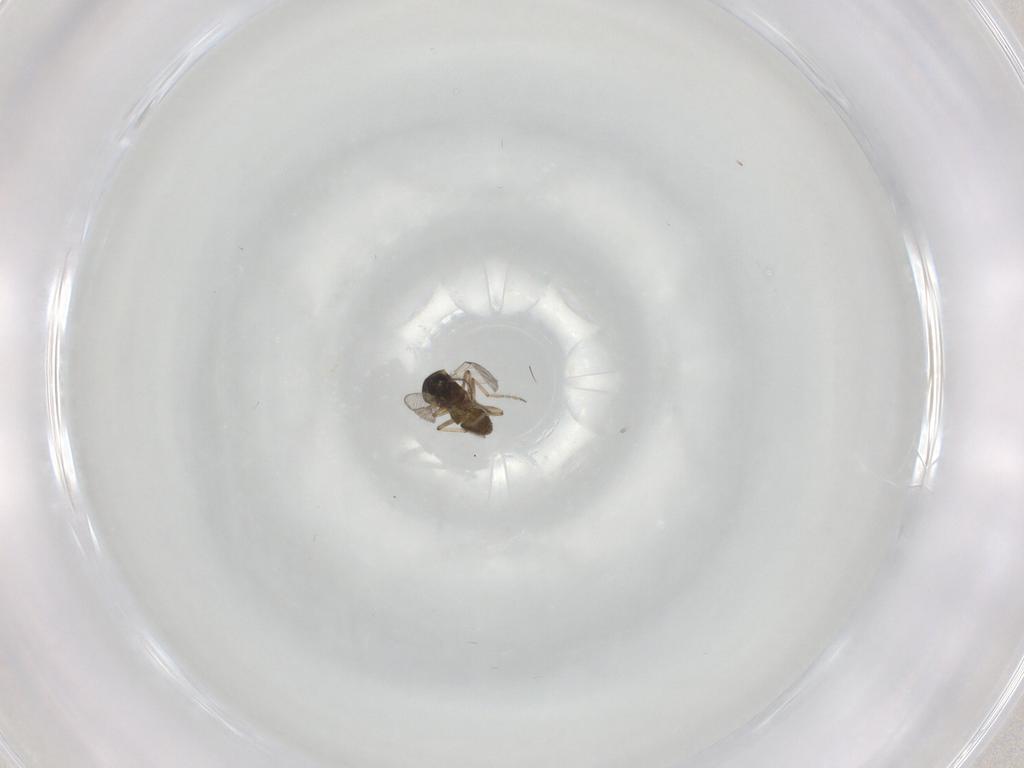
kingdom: Animalia
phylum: Arthropoda
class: Insecta
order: Diptera
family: Ceratopogonidae
